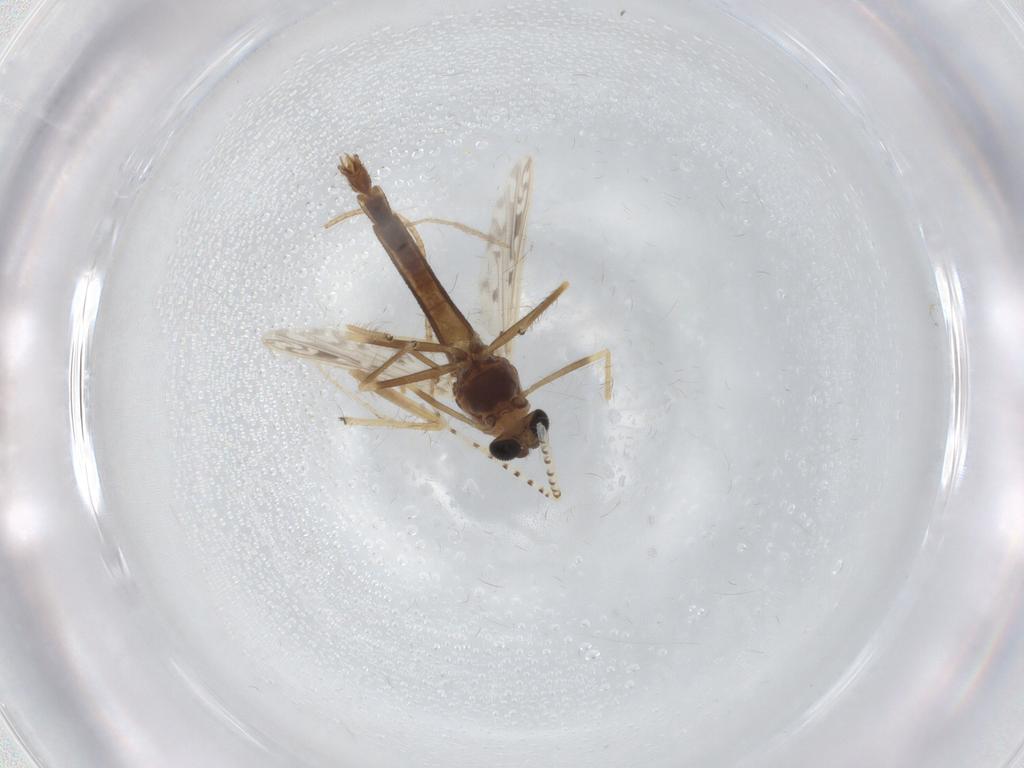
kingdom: Animalia
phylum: Arthropoda
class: Insecta
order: Diptera
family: Chironomidae
